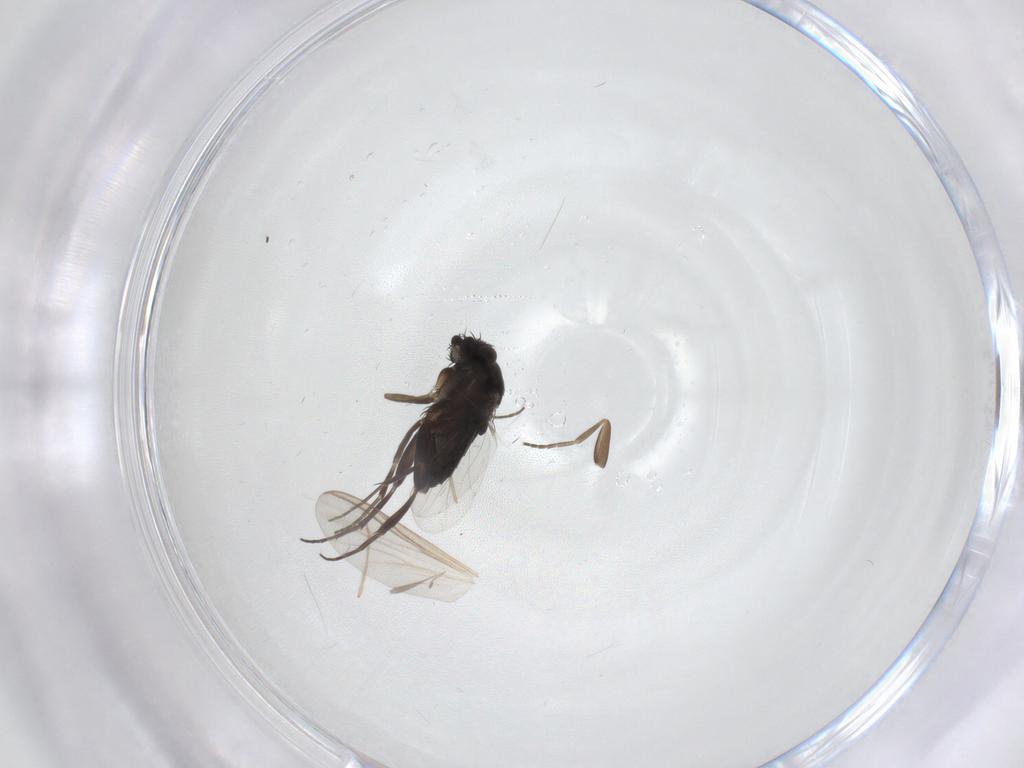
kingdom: Animalia
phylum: Arthropoda
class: Insecta
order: Diptera
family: Phoridae
